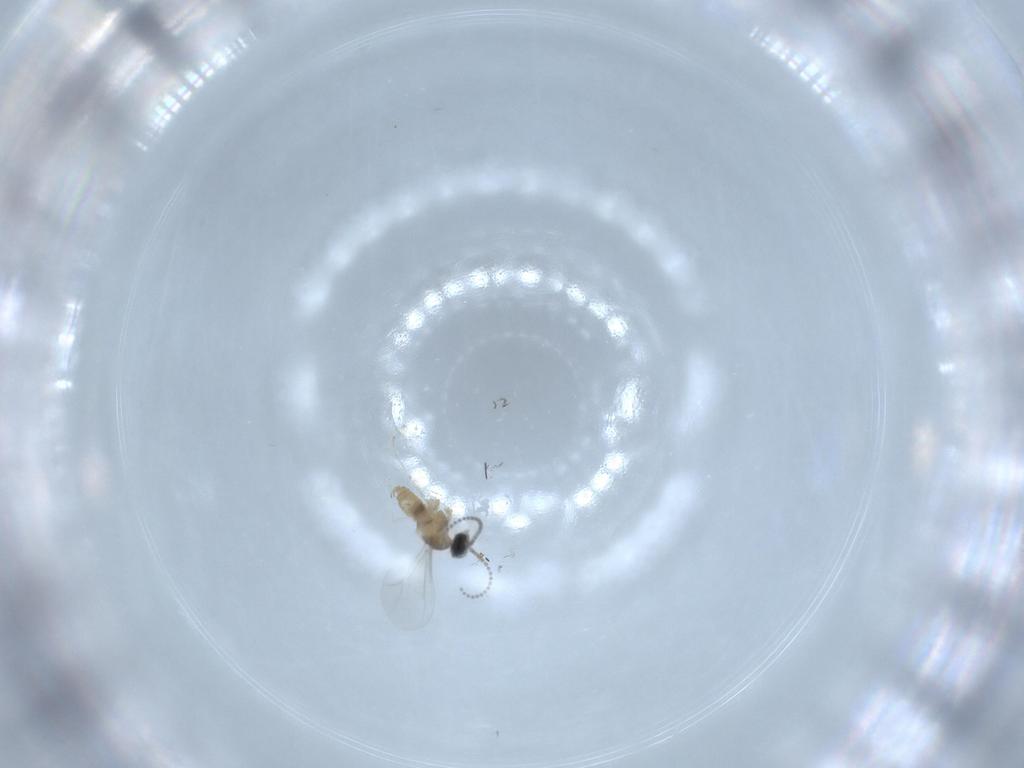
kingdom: Animalia
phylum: Arthropoda
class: Insecta
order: Diptera
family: Cecidomyiidae
